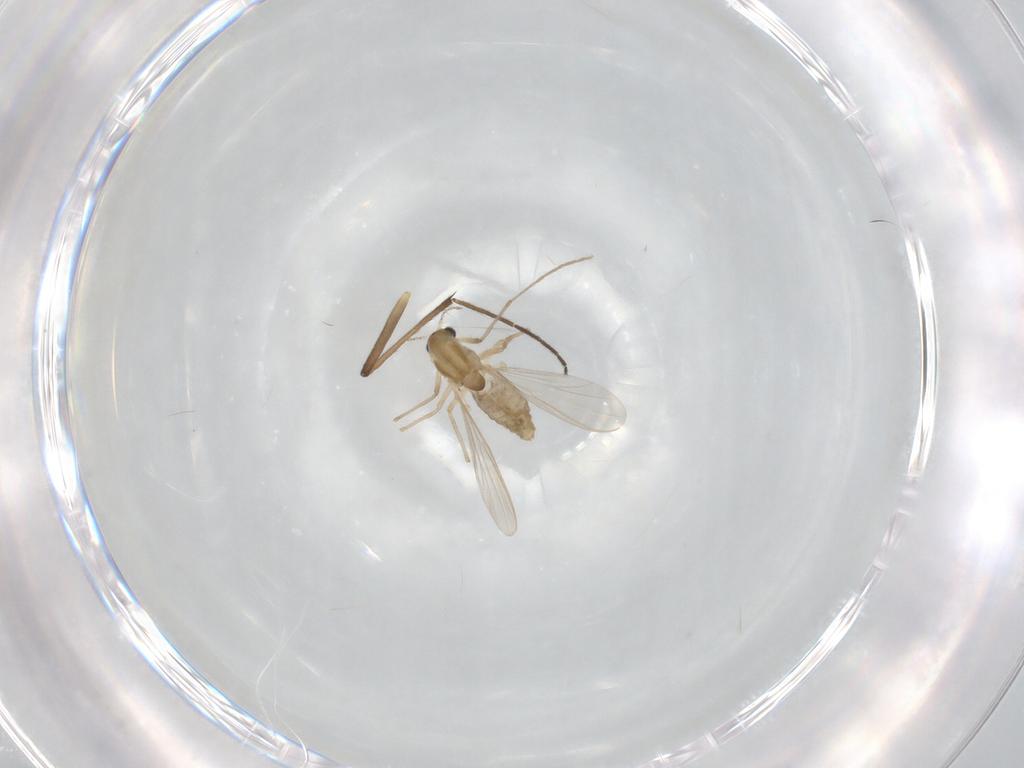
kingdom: Animalia
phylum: Arthropoda
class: Insecta
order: Diptera
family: Chironomidae
